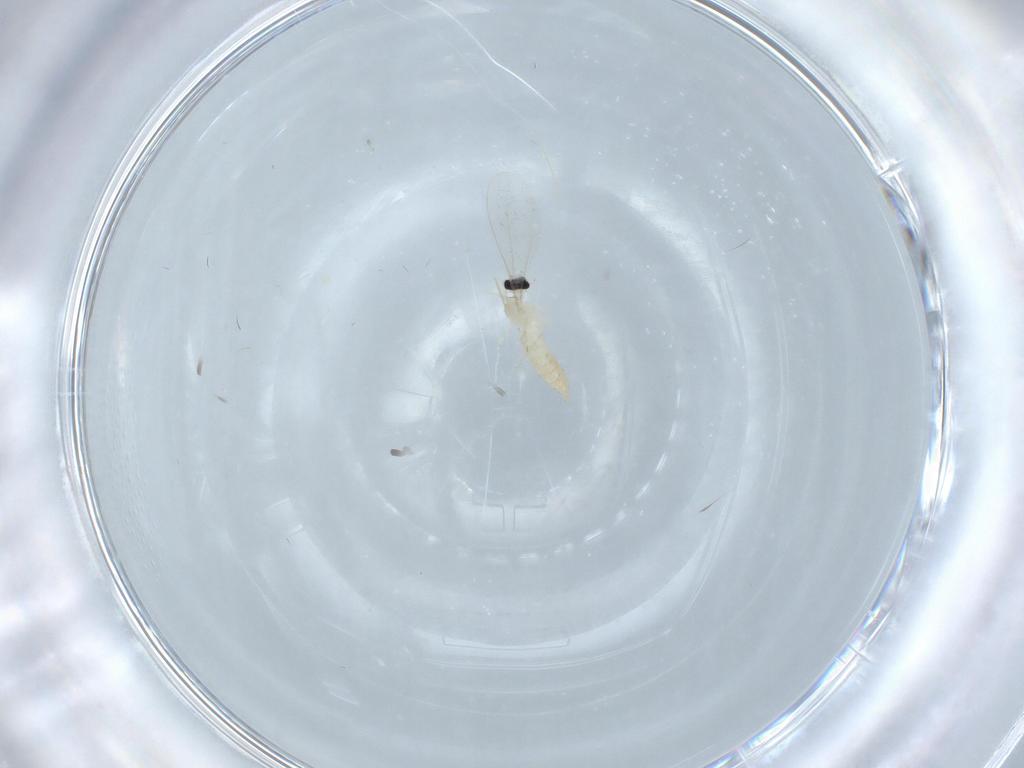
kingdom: Animalia
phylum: Arthropoda
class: Insecta
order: Diptera
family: Cecidomyiidae
